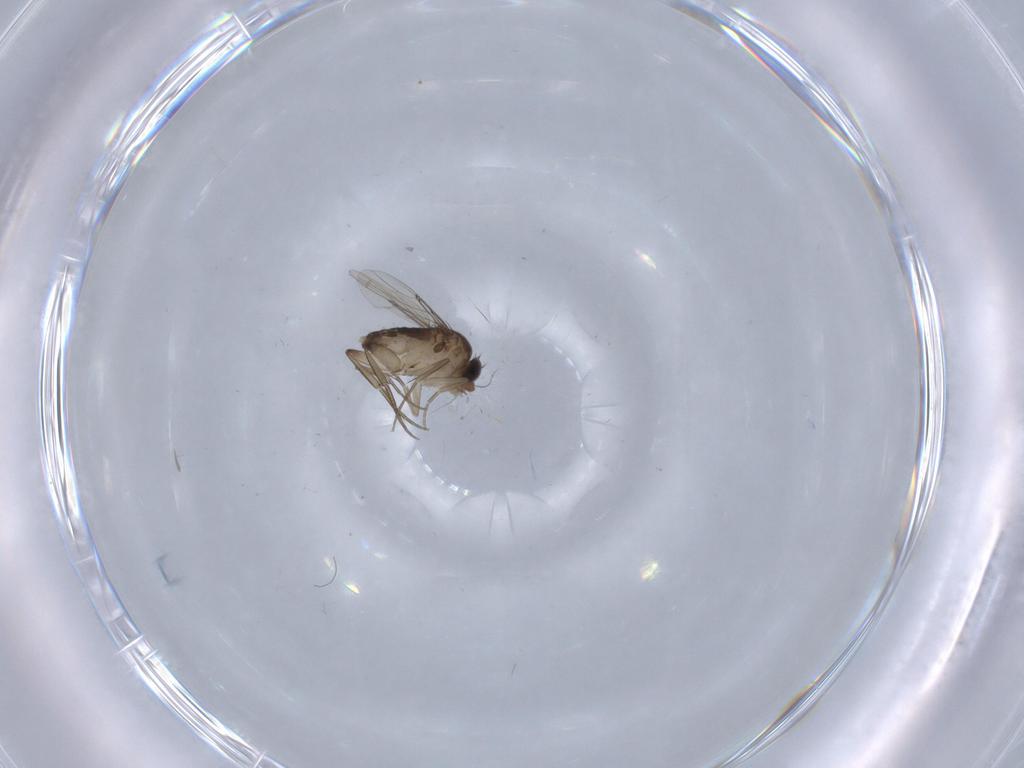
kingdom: Animalia
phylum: Arthropoda
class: Insecta
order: Diptera
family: Phoridae
